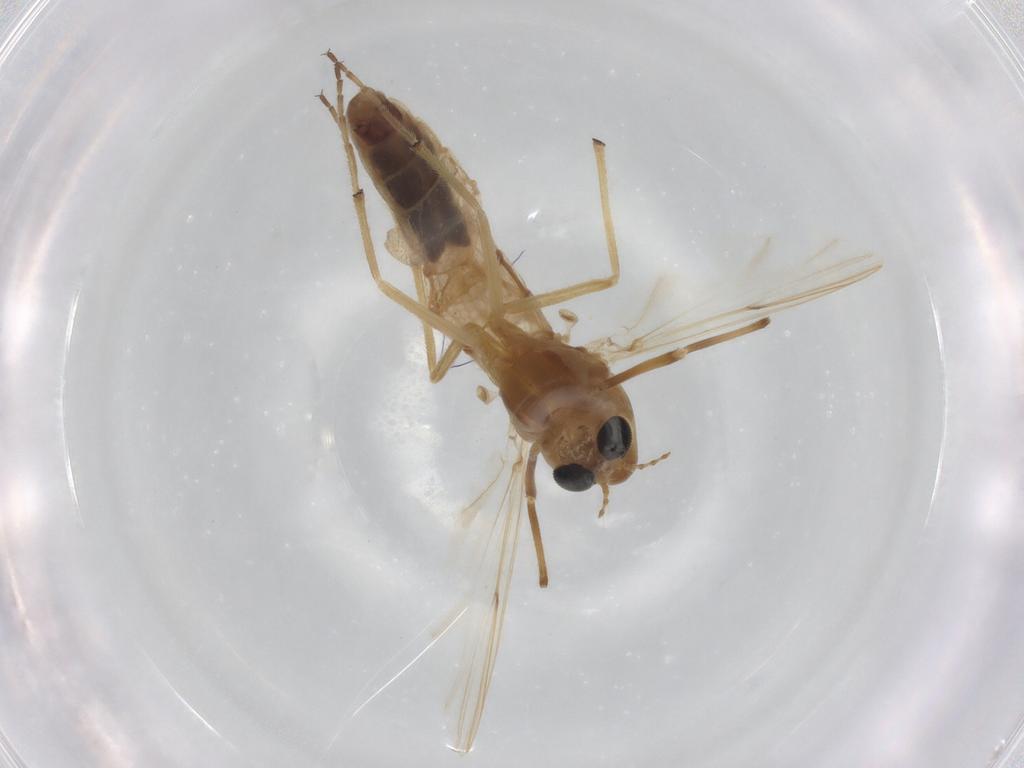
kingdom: Animalia
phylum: Arthropoda
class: Insecta
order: Diptera
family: Chironomidae
